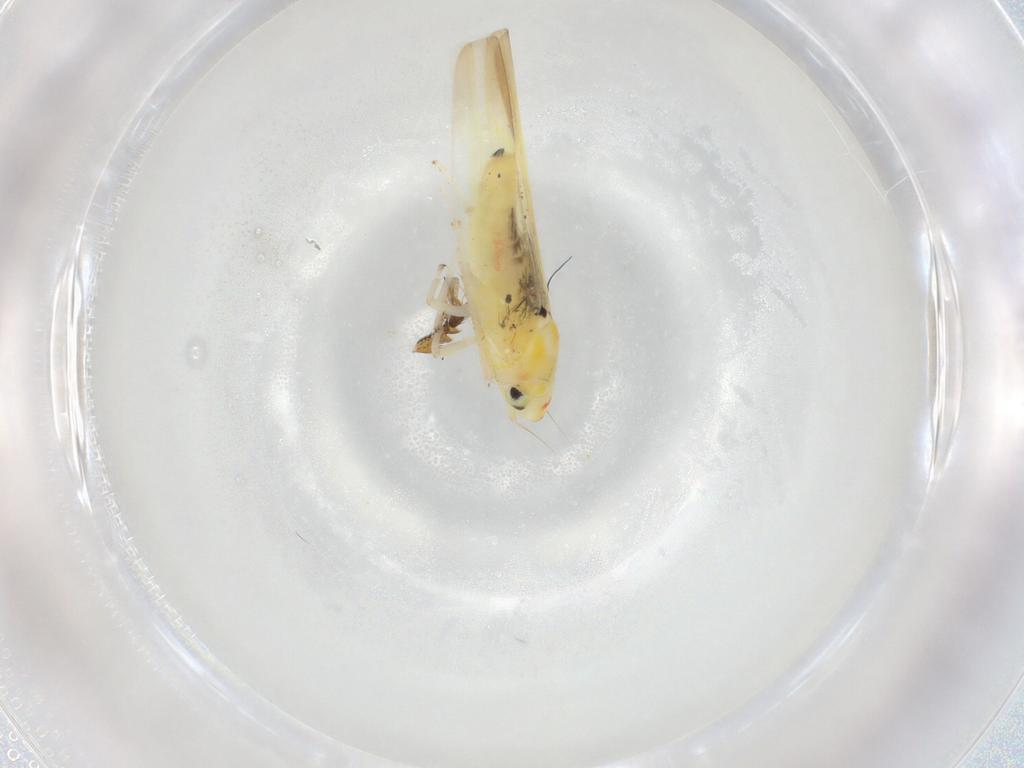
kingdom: Animalia
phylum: Arthropoda
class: Insecta
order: Hemiptera
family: Cicadellidae
